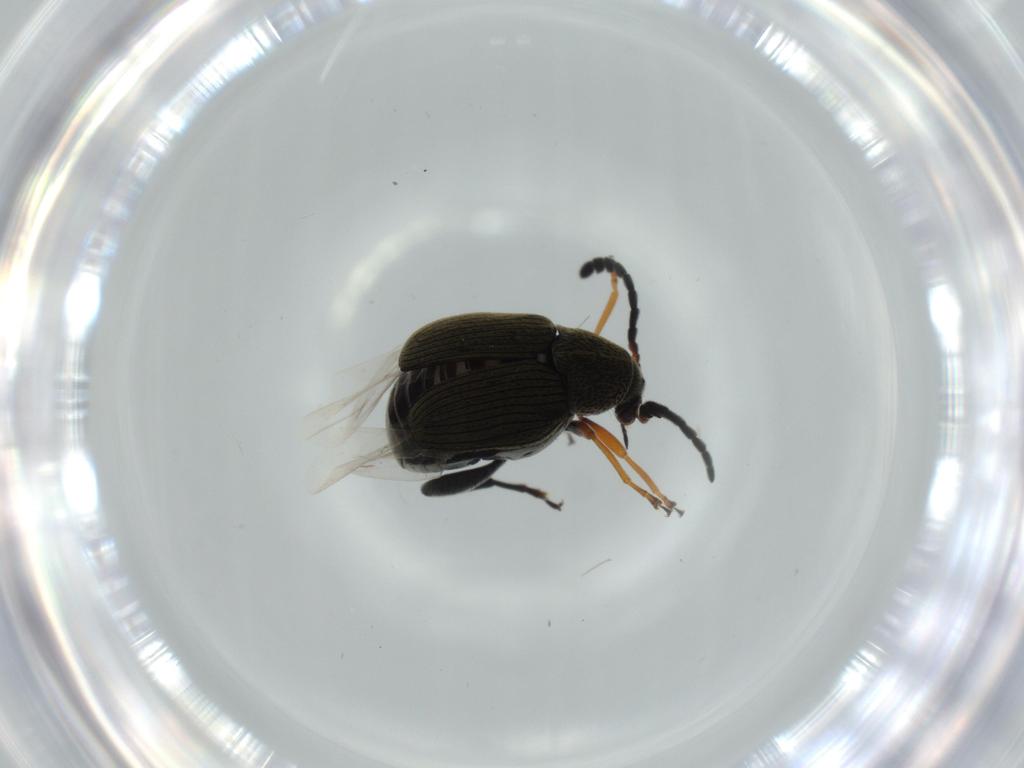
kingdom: Animalia
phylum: Arthropoda
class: Insecta
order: Coleoptera
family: Chrysomelidae
